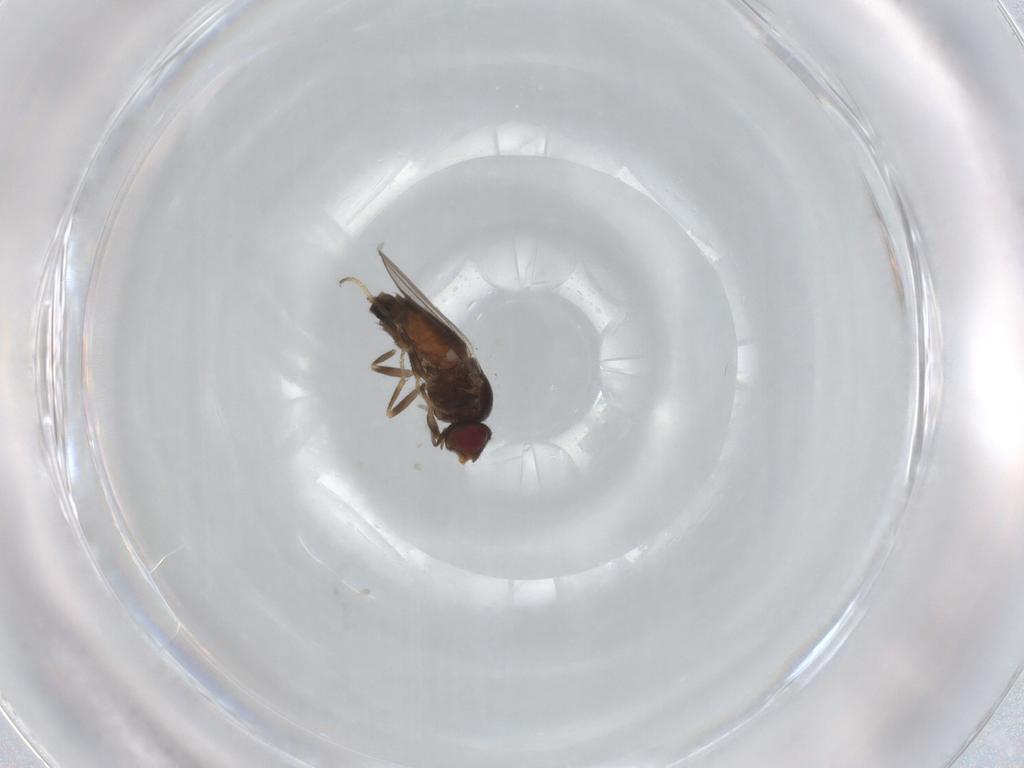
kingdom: Animalia
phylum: Arthropoda
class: Insecta
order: Diptera
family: Chloropidae
